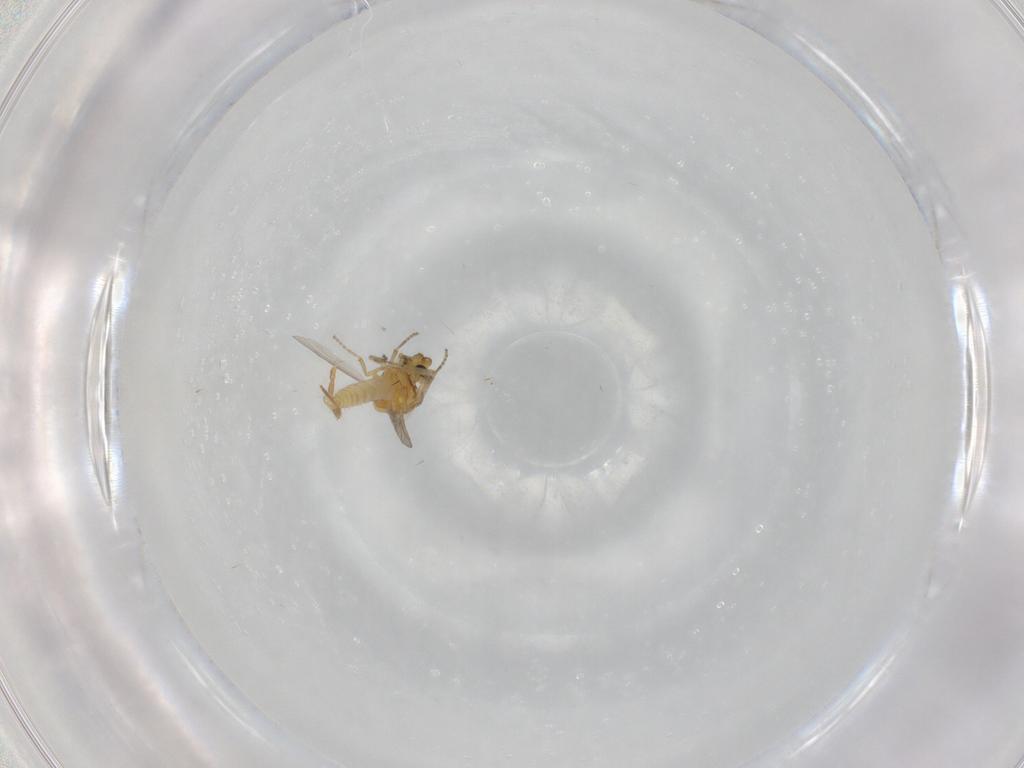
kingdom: Animalia
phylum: Arthropoda
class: Insecta
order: Diptera
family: Ceratopogonidae
